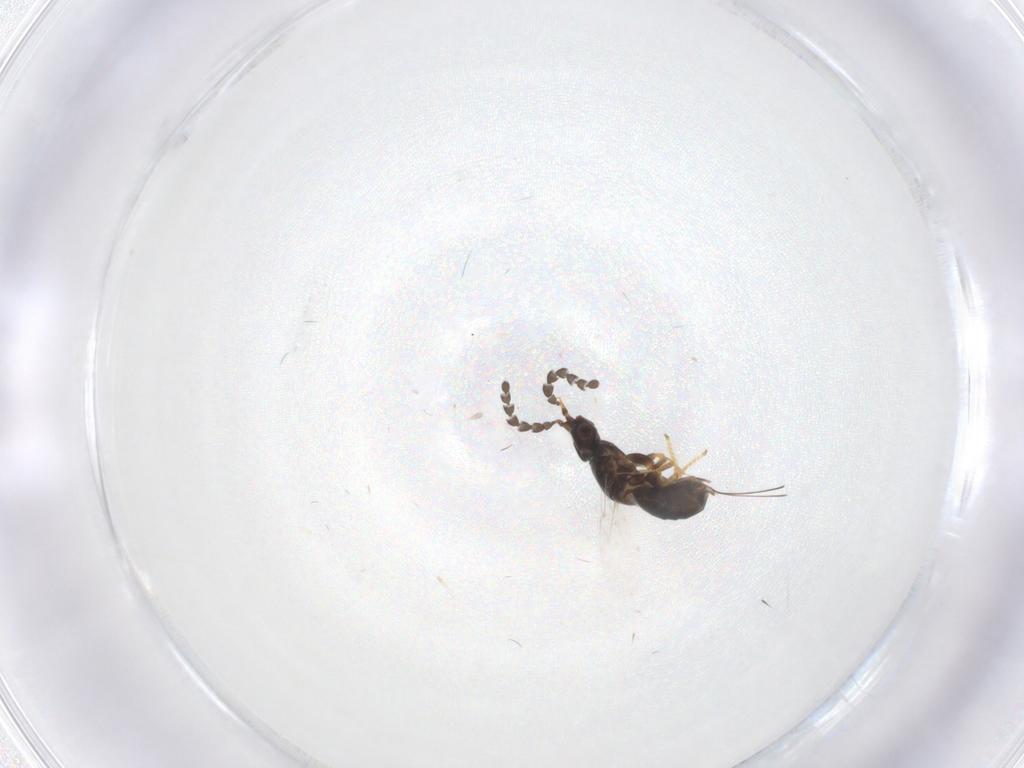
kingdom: Animalia
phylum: Arthropoda
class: Insecta
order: Hymenoptera
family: Agaonidae
